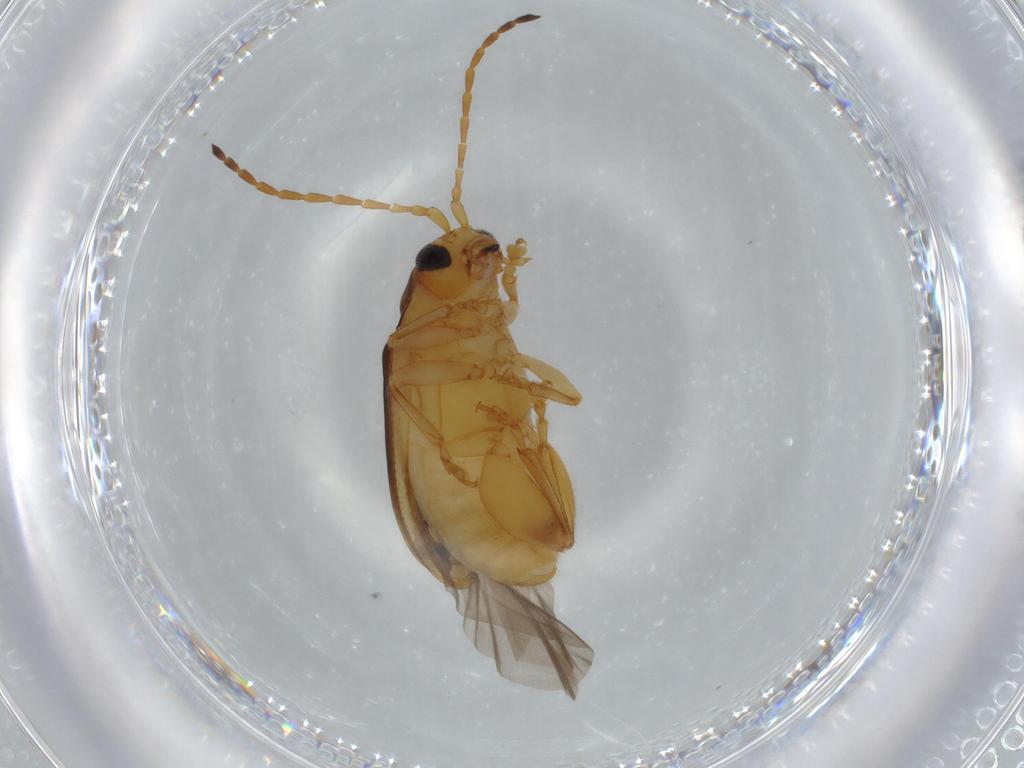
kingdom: Animalia
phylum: Arthropoda
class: Insecta
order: Coleoptera
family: Chrysomelidae
